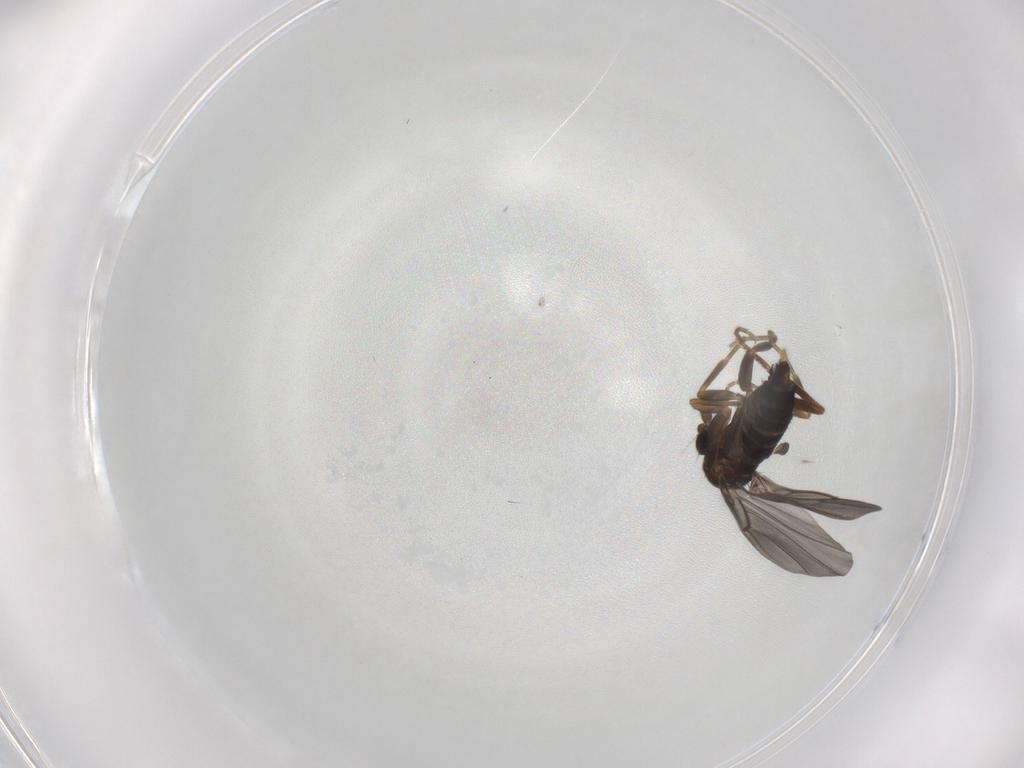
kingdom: Animalia
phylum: Arthropoda
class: Insecta
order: Diptera
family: Phoridae
